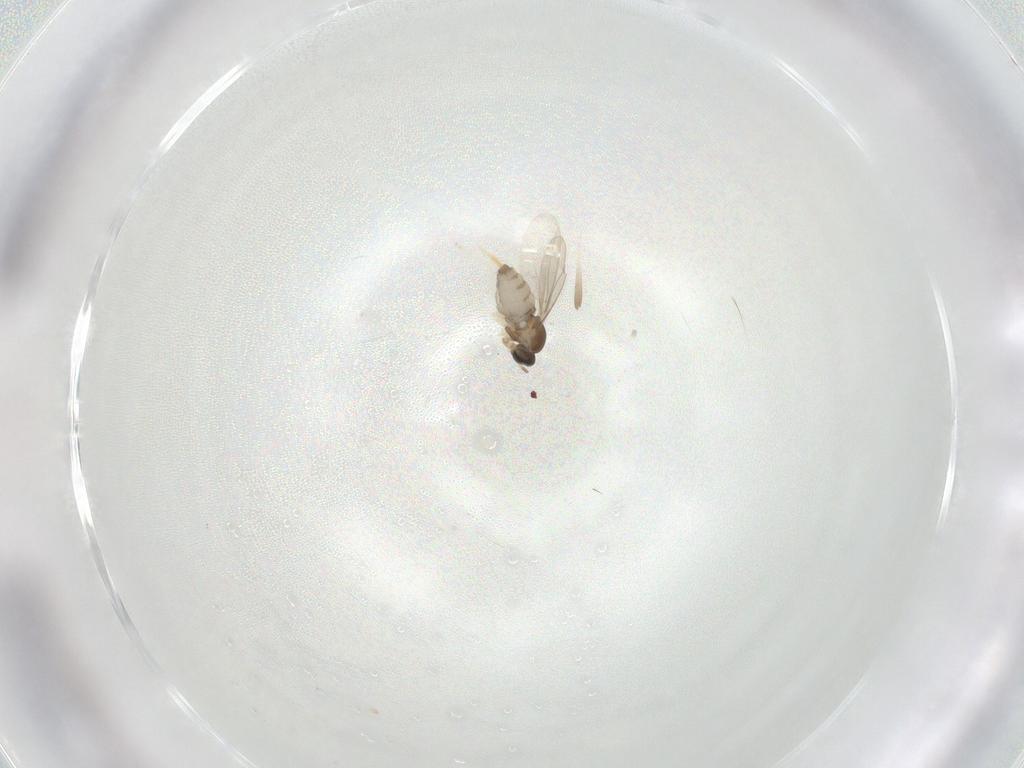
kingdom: Animalia
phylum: Arthropoda
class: Insecta
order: Diptera
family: Cecidomyiidae
